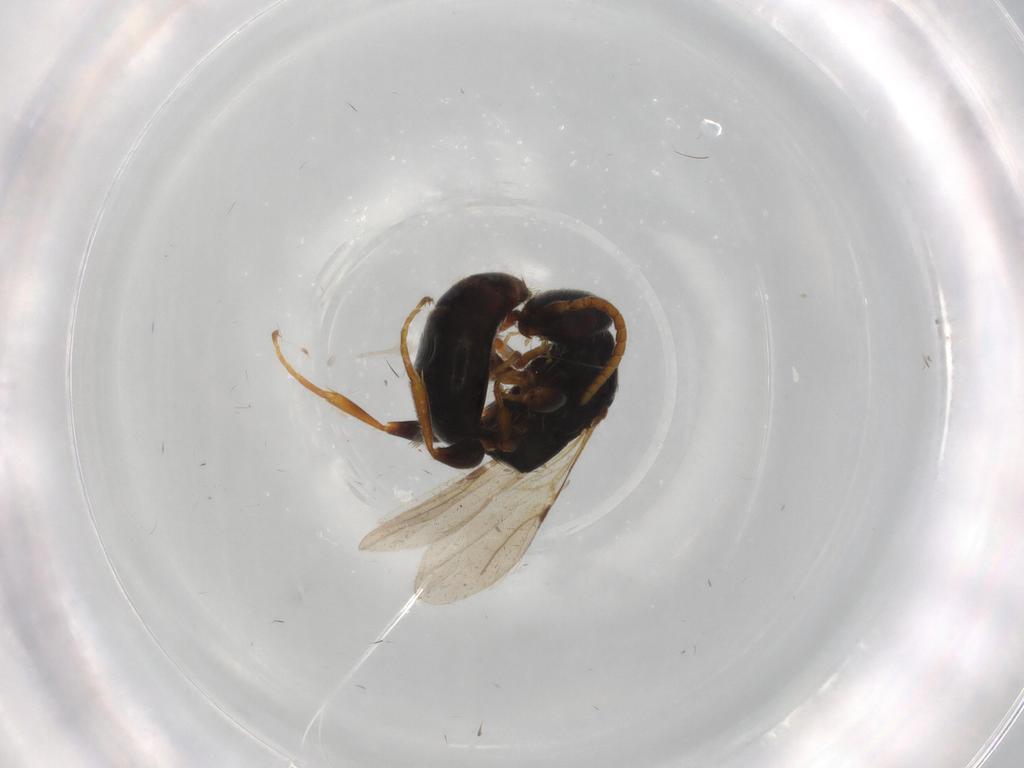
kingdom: Animalia
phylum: Arthropoda
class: Insecta
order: Hymenoptera
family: Bethylidae
